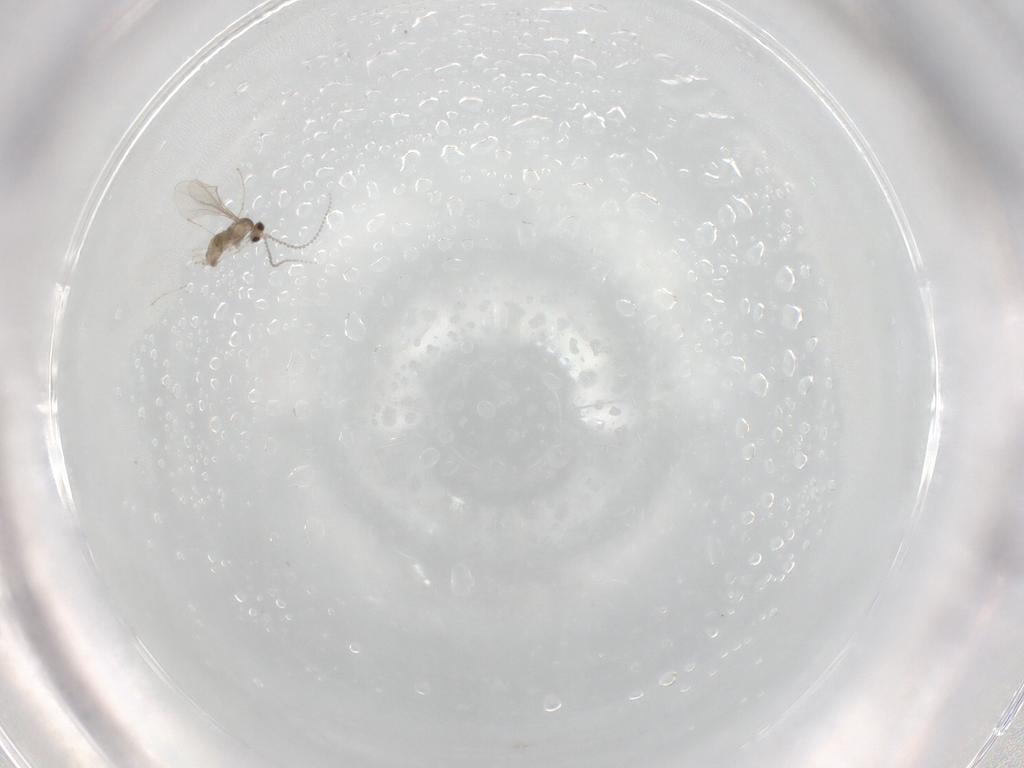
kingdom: Animalia
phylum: Arthropoda
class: Insecta
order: Diptera
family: Cecidomyiidae
